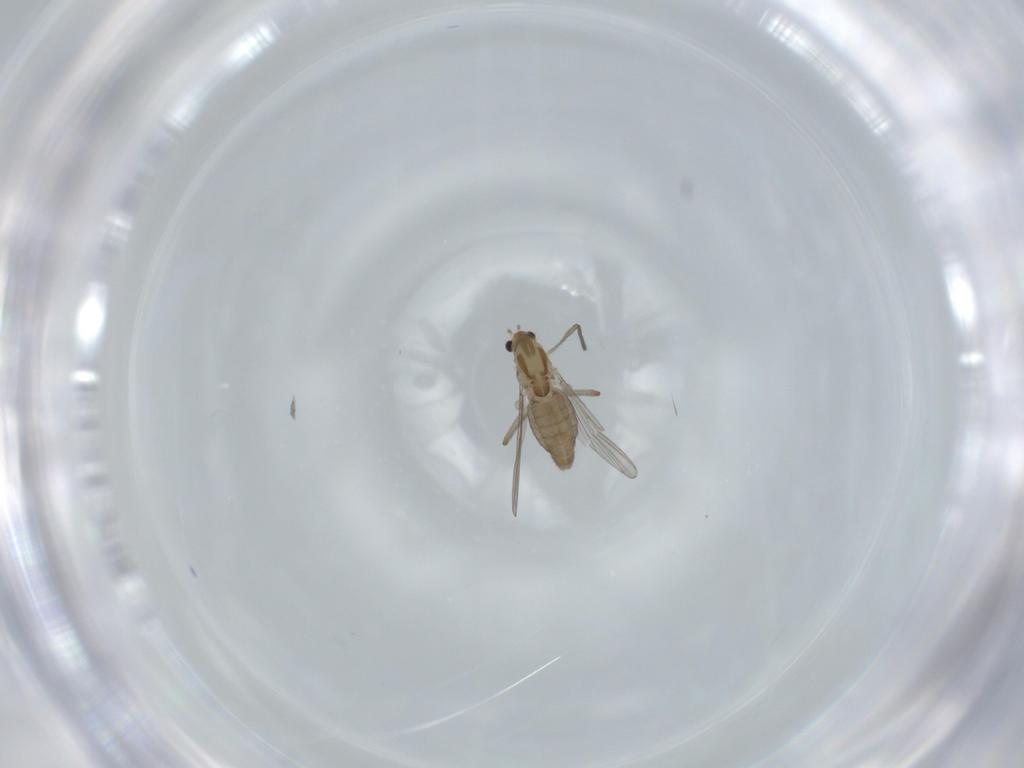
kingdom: Animalia
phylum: Arthropoda
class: Insecta
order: Diptera
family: Chironomidae
